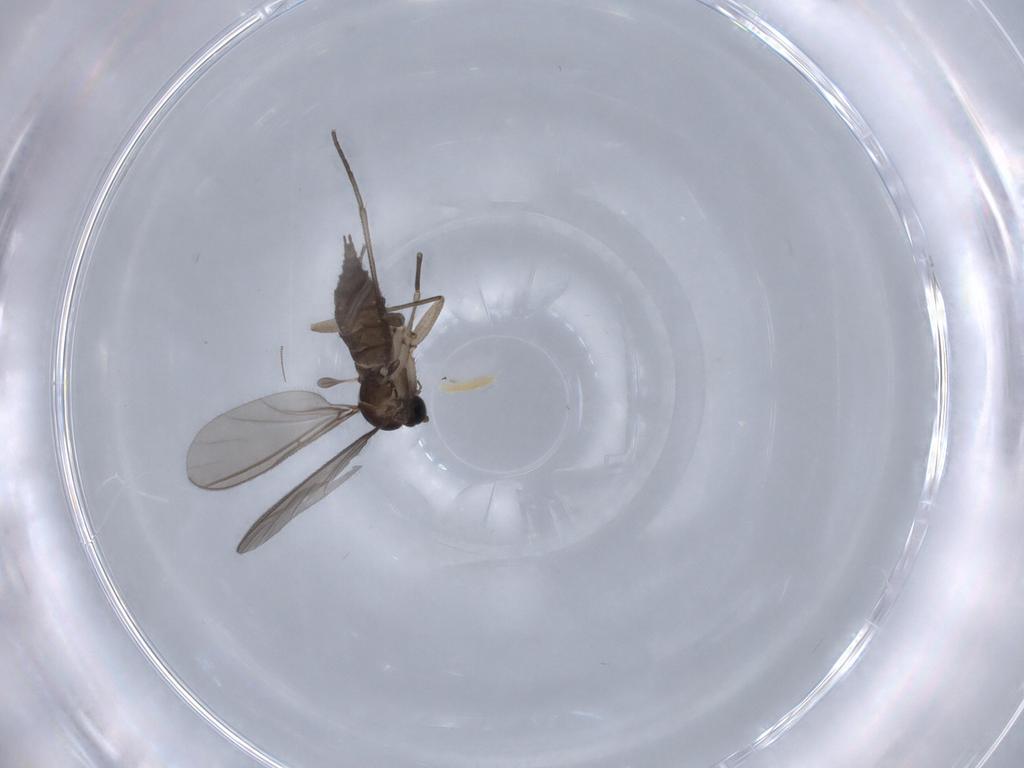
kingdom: Animalia
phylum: Arthropoda
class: Insecta
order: Diptera
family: Sciaridae
